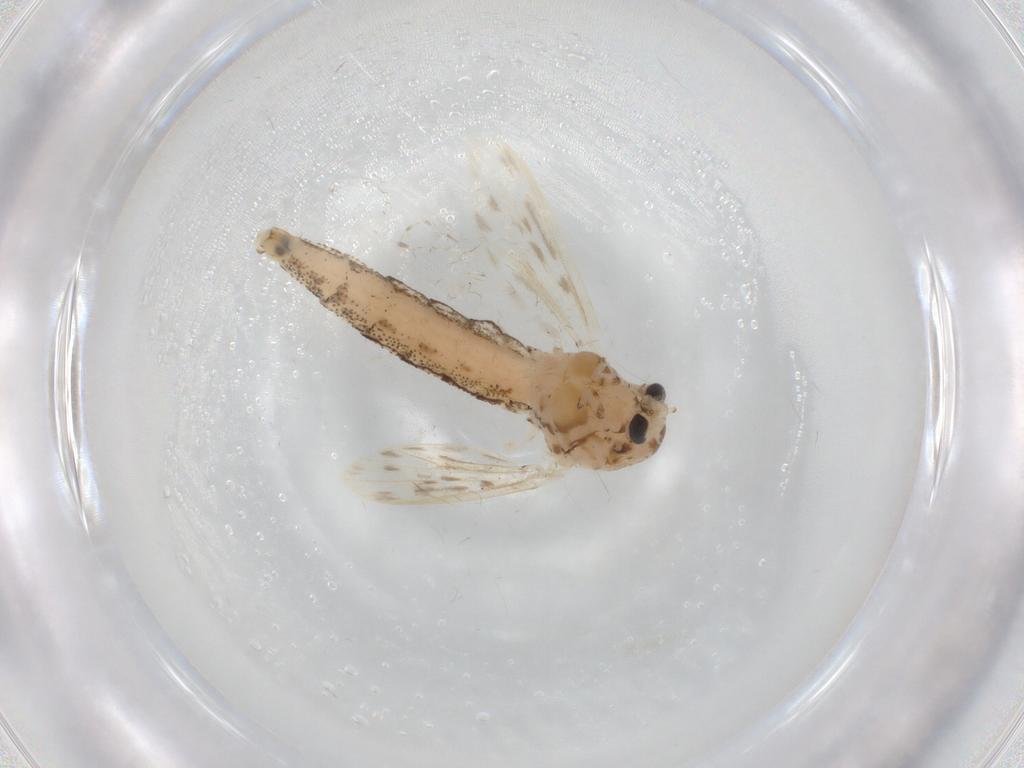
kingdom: Animalia
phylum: Arthropoda
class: Insecta
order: Diptera
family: Chaoboridae
